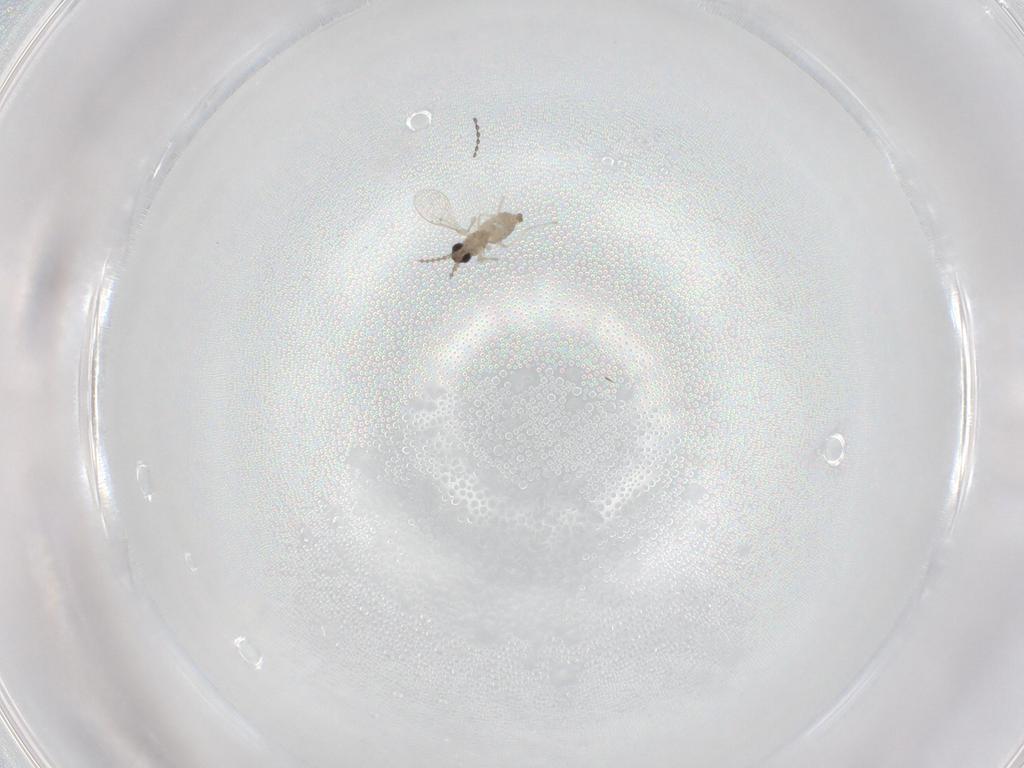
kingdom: Animalia
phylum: Arthropoda
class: Insecta
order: Diptera
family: Cecidomyiidae
